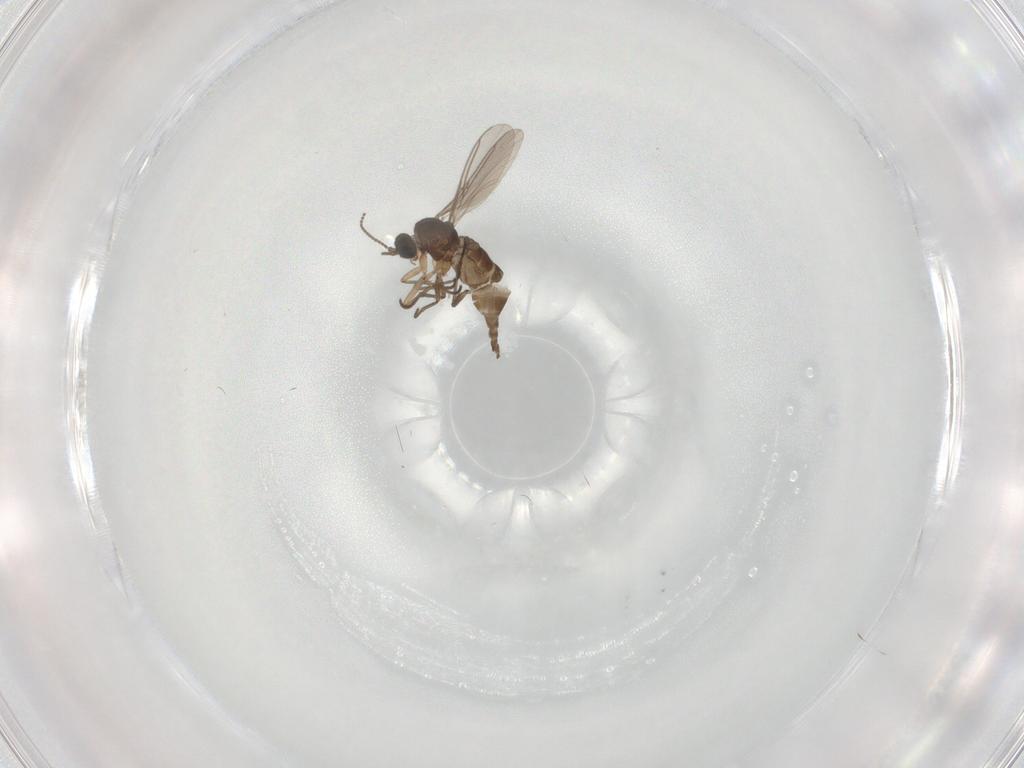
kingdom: Animalia
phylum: Arthropoda
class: Insecta
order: Diptera
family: Sciaridae
